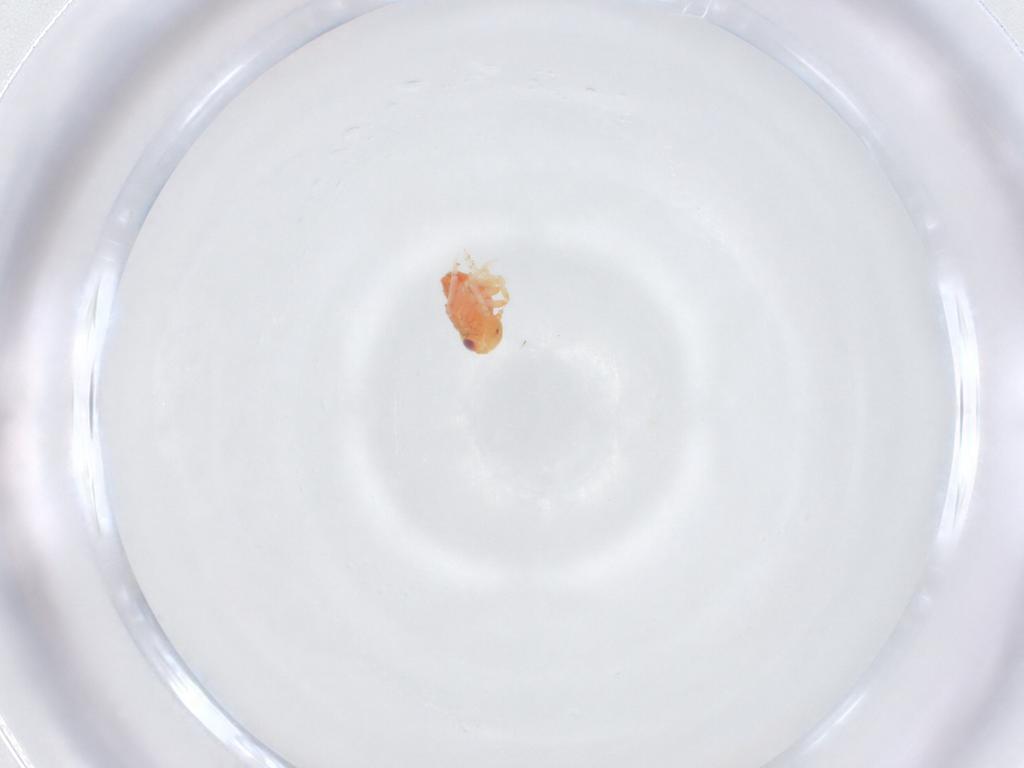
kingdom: Animalia
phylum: Arthropoda
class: Insecta
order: Hemiptera
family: Issidae
